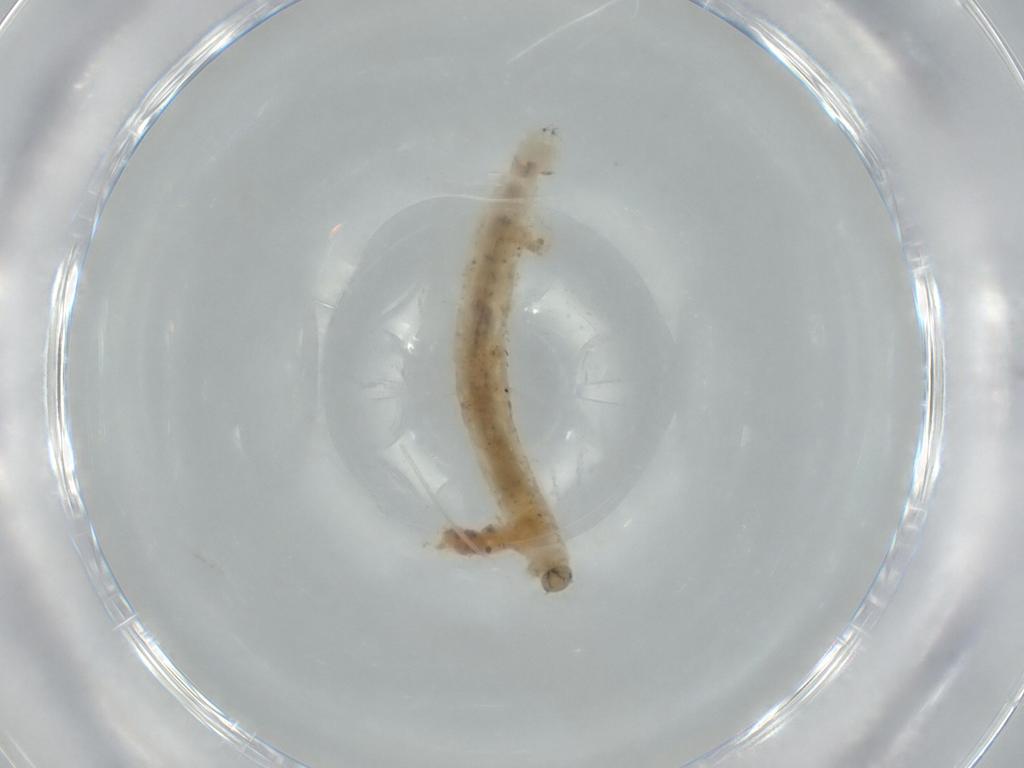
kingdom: Animalia
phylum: Arthropoda
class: Insecta
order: Diptera
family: Chironomidae
